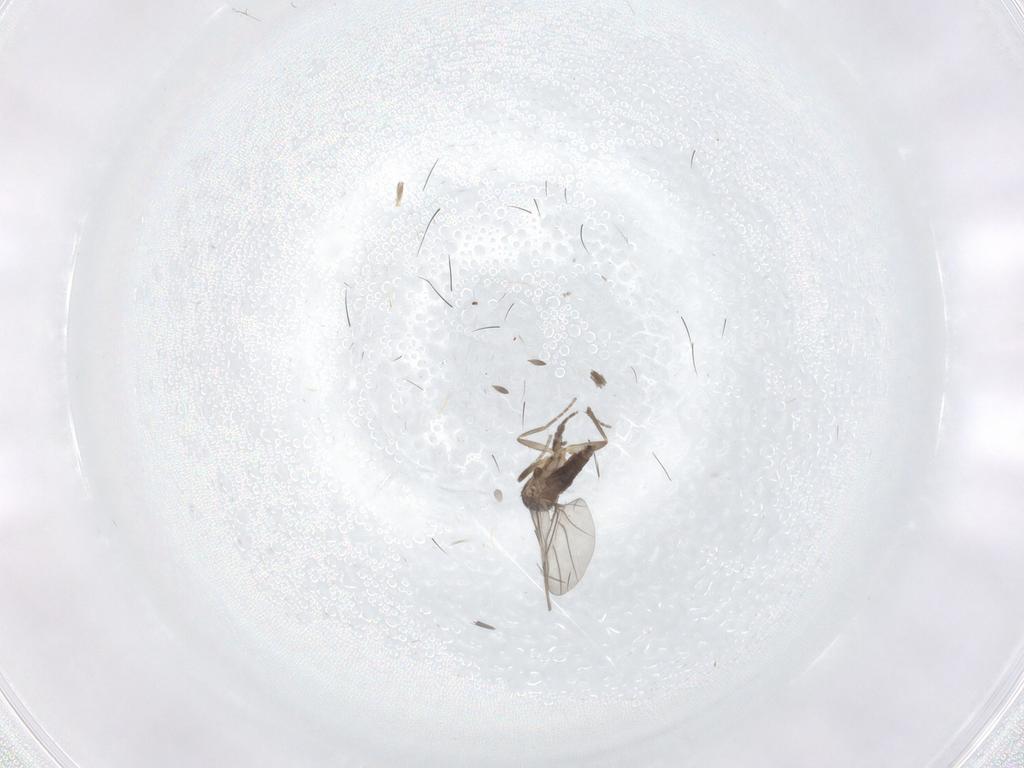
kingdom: Animalia
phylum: Arthropoda
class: Insecta
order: Diptera
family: Phoridae
